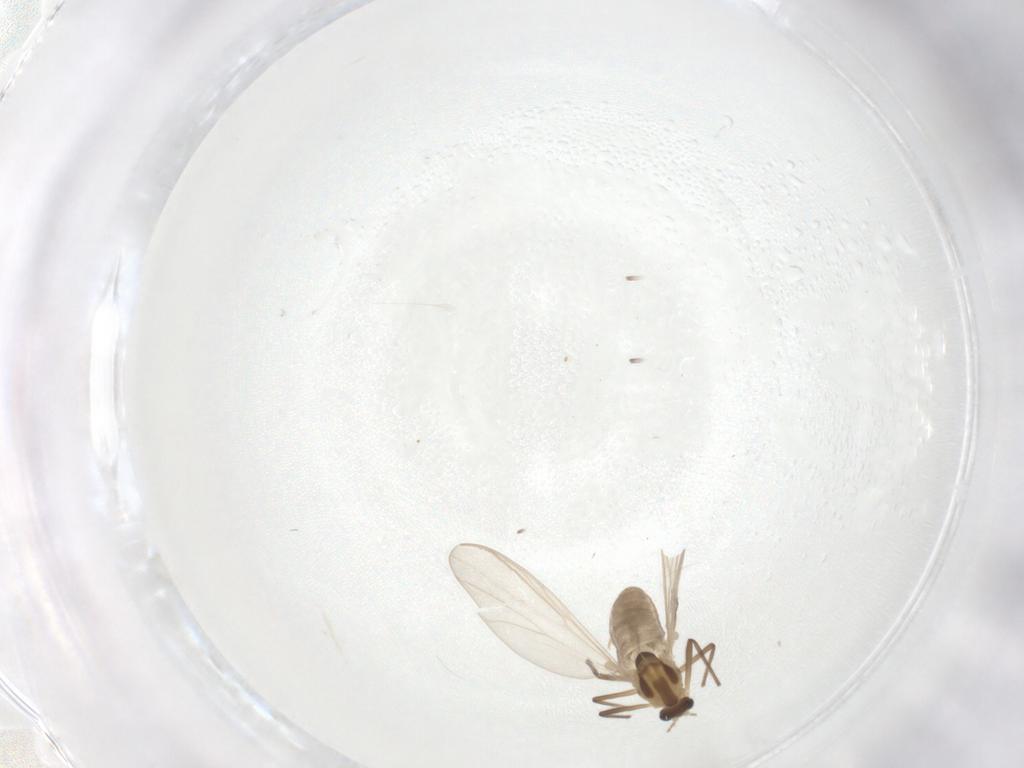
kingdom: Animalia
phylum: Arthropoda
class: Insecta
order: Diptera
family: Chironomidae
